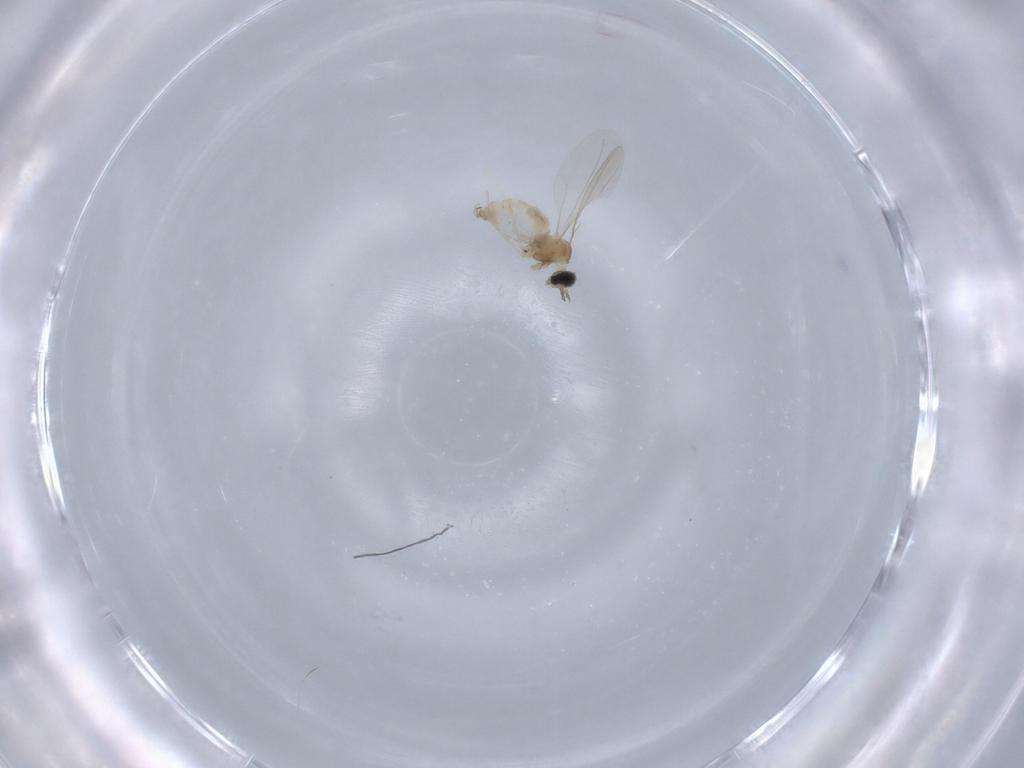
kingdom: Animalia
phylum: Arthropoda
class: Insecta
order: Diptera
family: Cecidomyiidae
